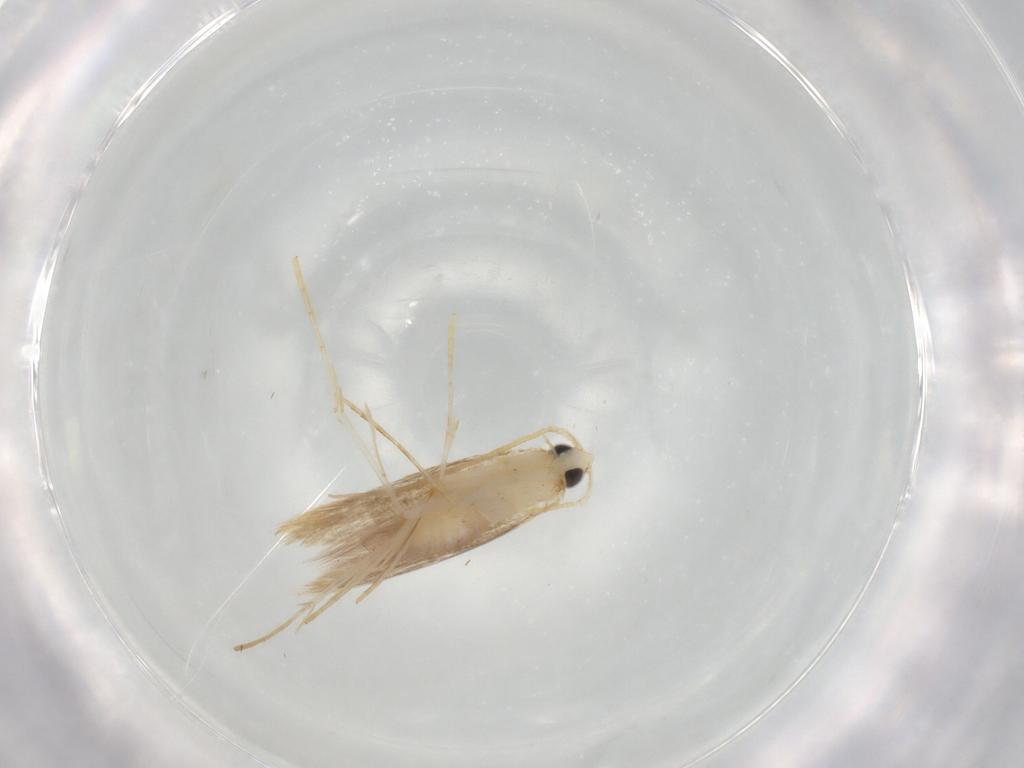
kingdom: Animalia
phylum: Arthropoda
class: Insecta
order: Lepidoptera
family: Tineidae
